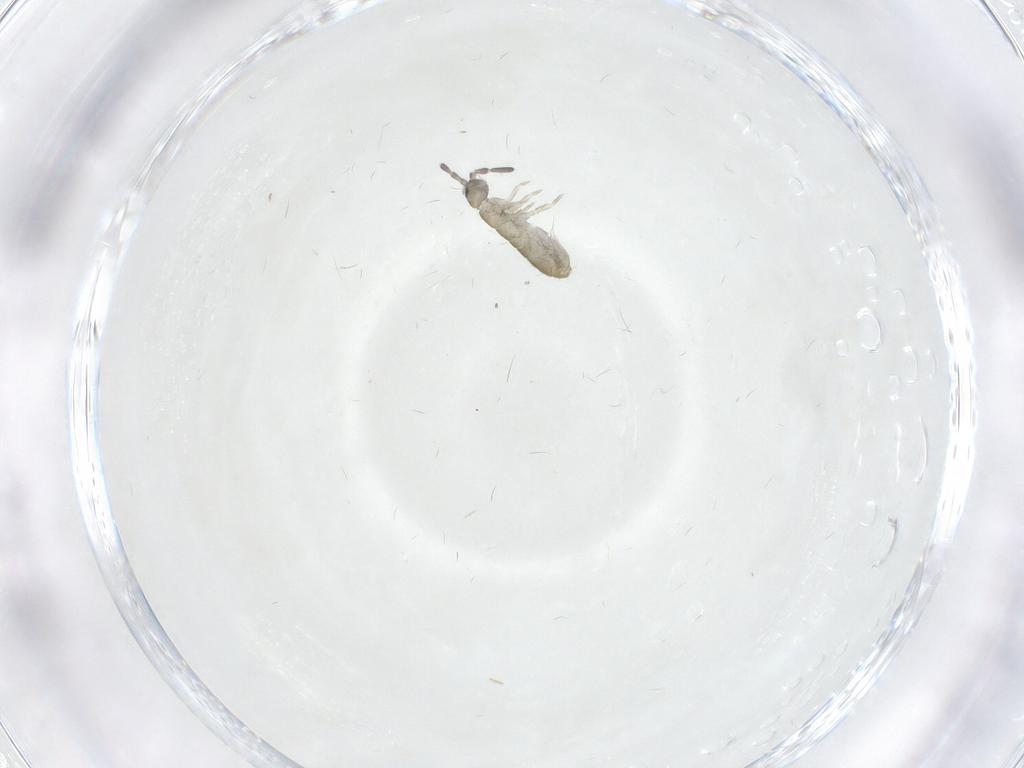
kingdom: Animalia
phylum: Arthropoda
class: Collembola
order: Entomobryomorpha
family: Entomobryidae
